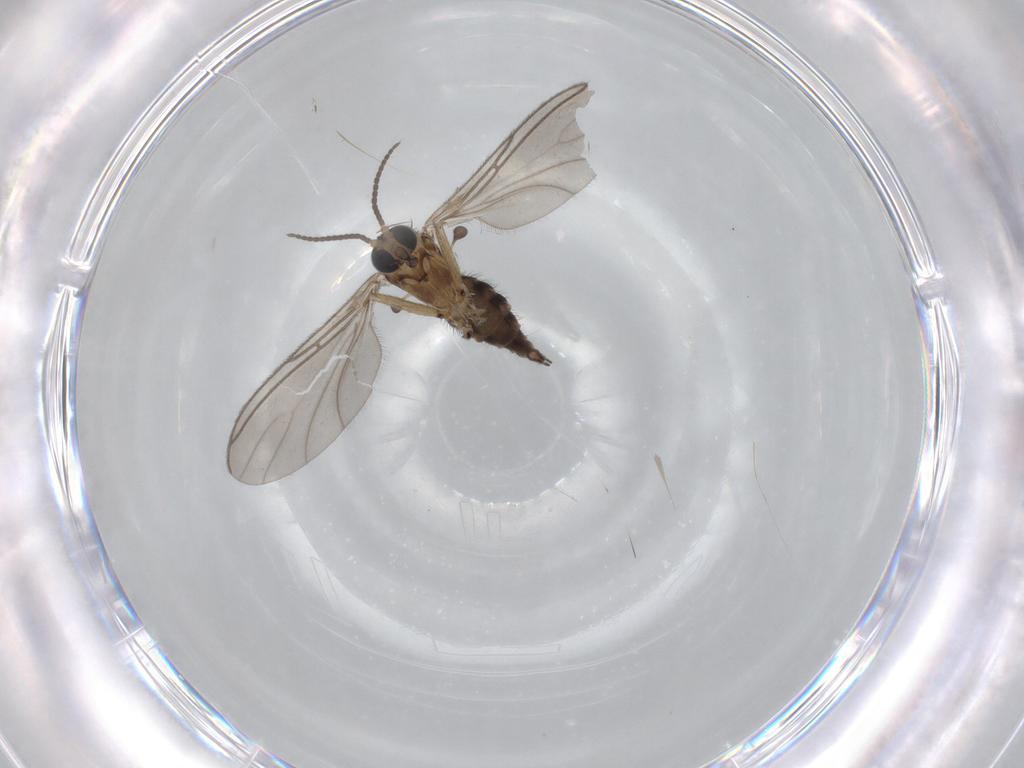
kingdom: Animalia
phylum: Arthropoda
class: Insecta
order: Diptera
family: Sciaridae
